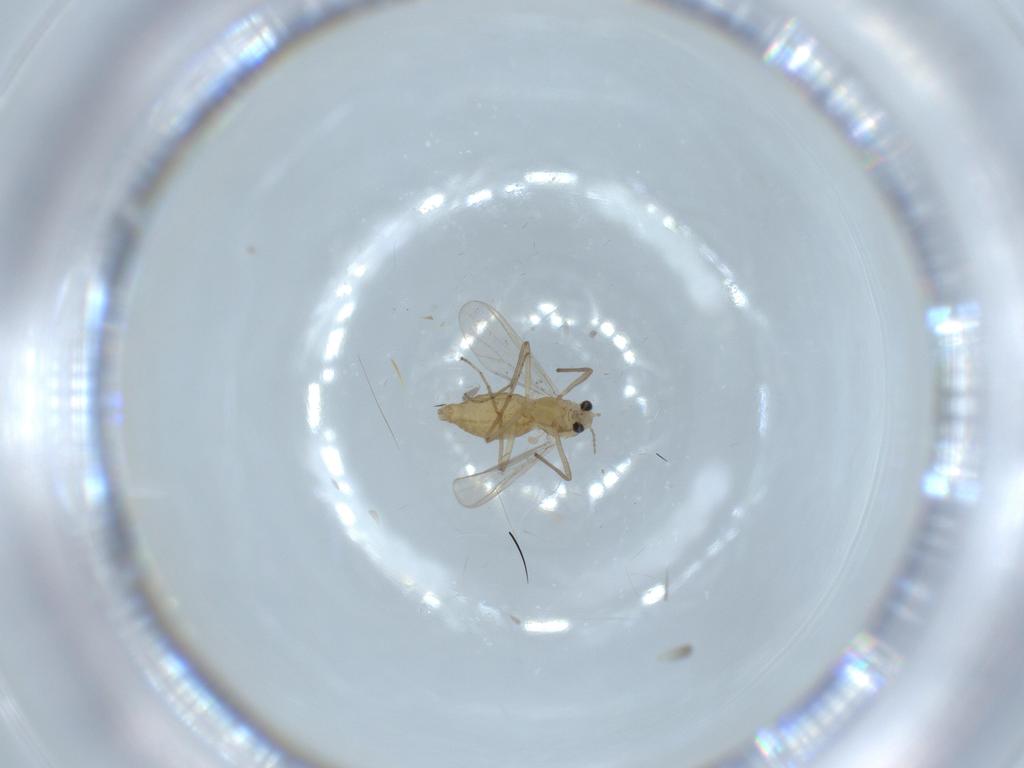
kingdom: Animalia
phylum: Arthropoda
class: Insecta
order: Diptera
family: Chironomidae
